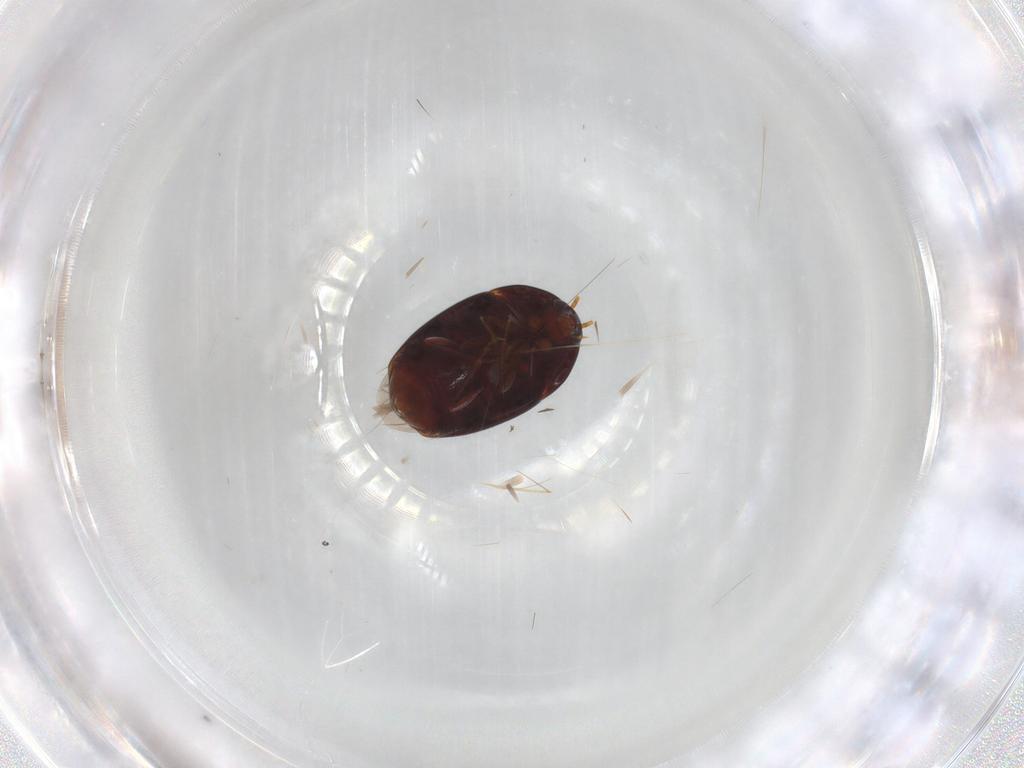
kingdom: Animalia
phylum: Arthropoda
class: Insecta
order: Coleoptera
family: Staphylinidae
